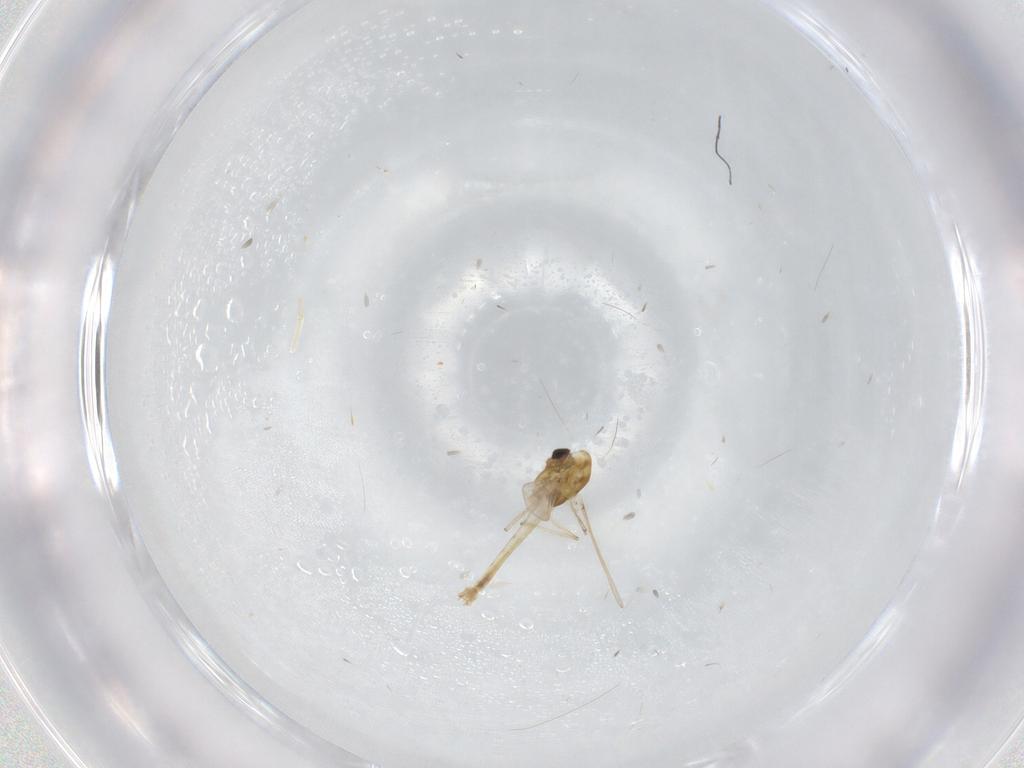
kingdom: Animalia
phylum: Arthropoda
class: Insecta
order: Diptera
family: Chironomidae
